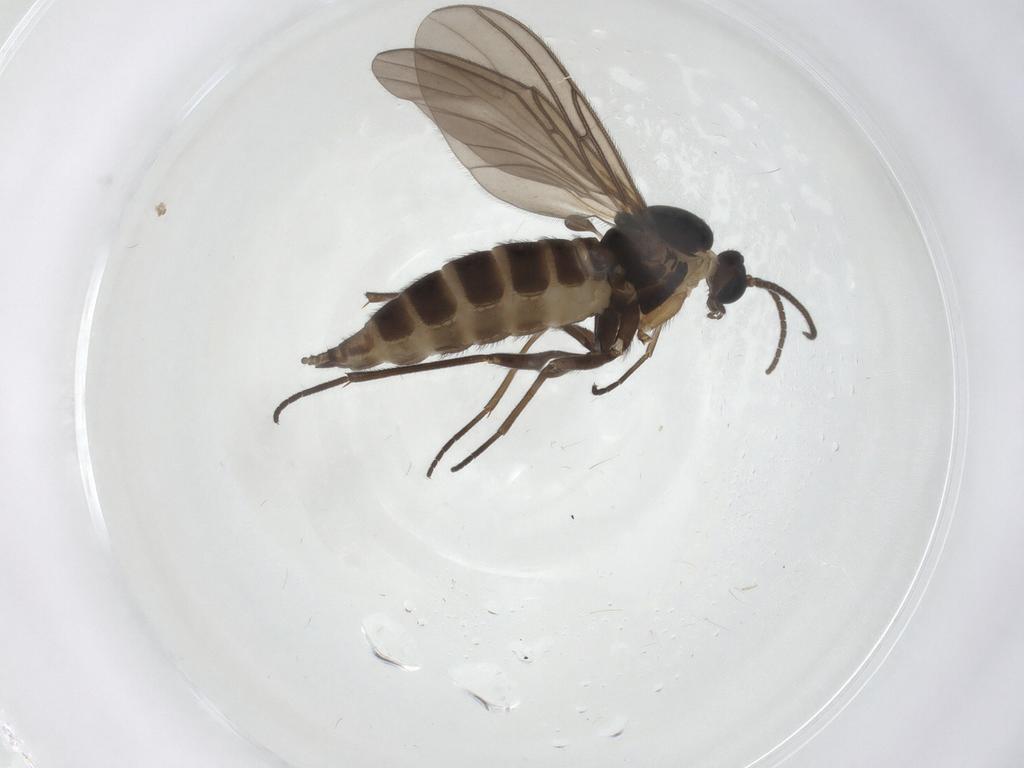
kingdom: Animalia
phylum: Arthropoda
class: Insecta
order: Diptera
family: Sciaridae
